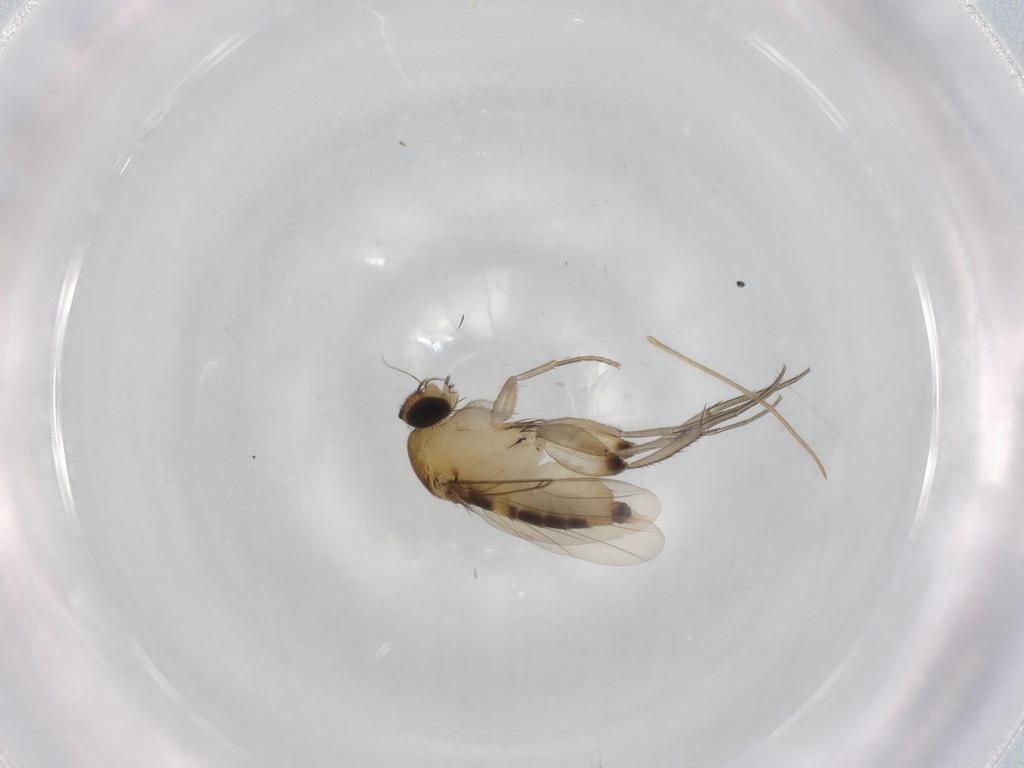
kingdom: Animalia
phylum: Arthropoda
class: Insecta
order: Diptera
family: Phoridae
